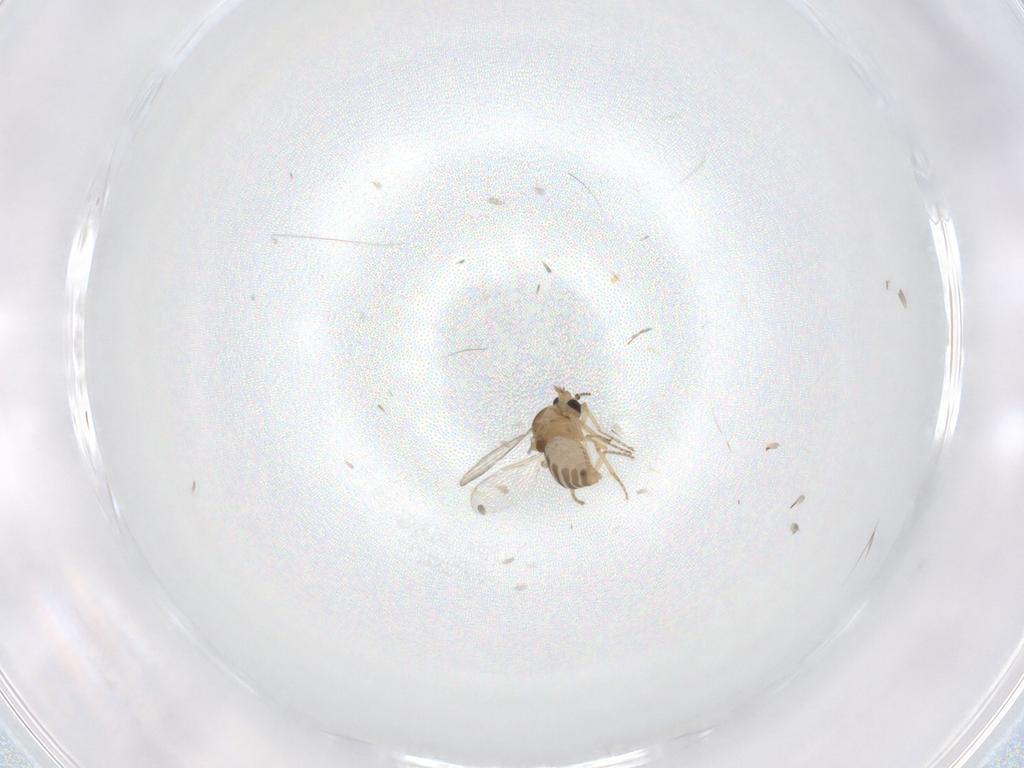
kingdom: Animalia
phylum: Arthropoda
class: Insecta
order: Diptera
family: Ceratopogonidae
